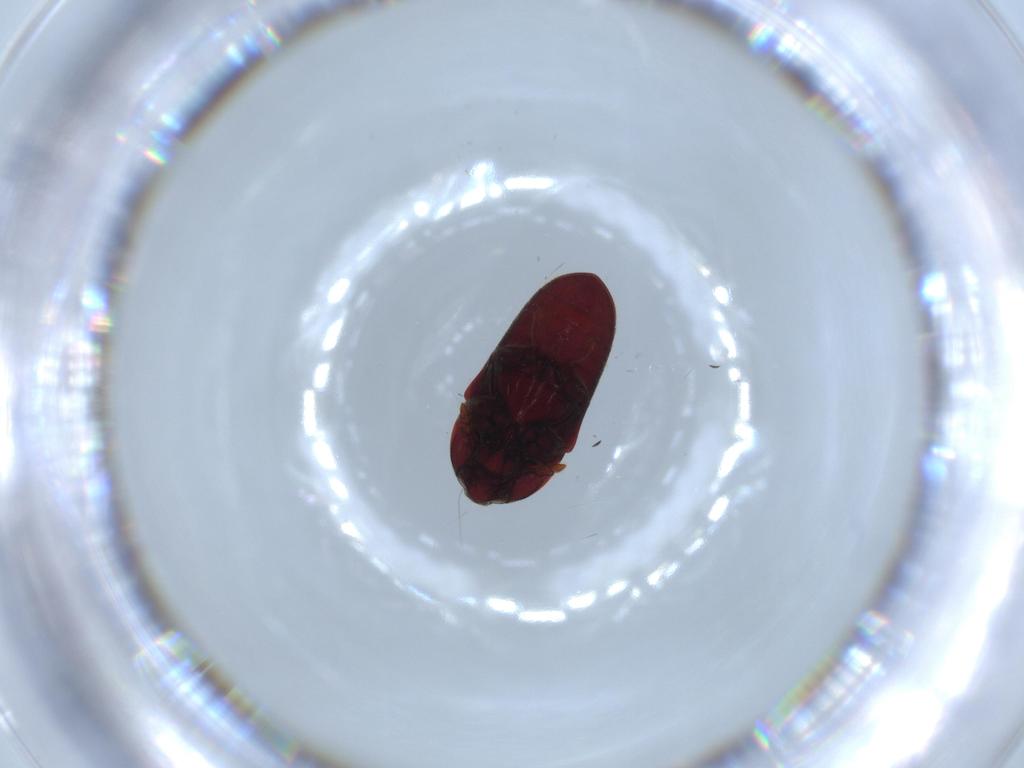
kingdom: Animalia
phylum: Arthropoda
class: Insecta
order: Coleoptera
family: Throscidae
